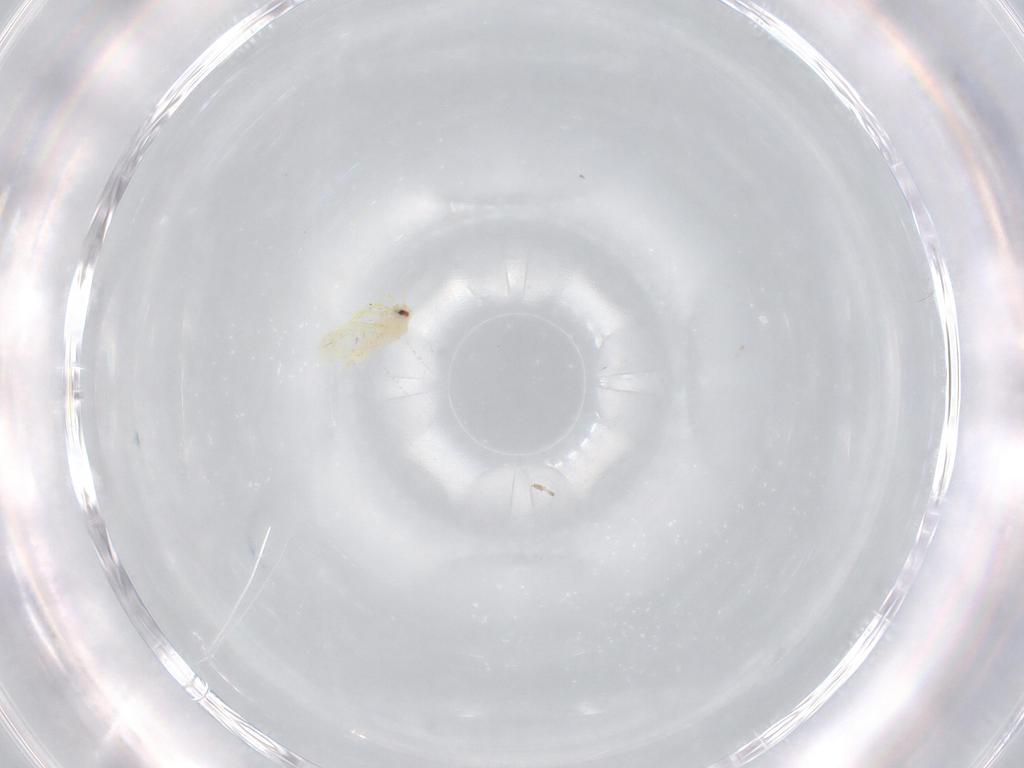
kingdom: Animalia
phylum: Arthropoda
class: Insecta
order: Hemiptera
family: Aleyrodidae
